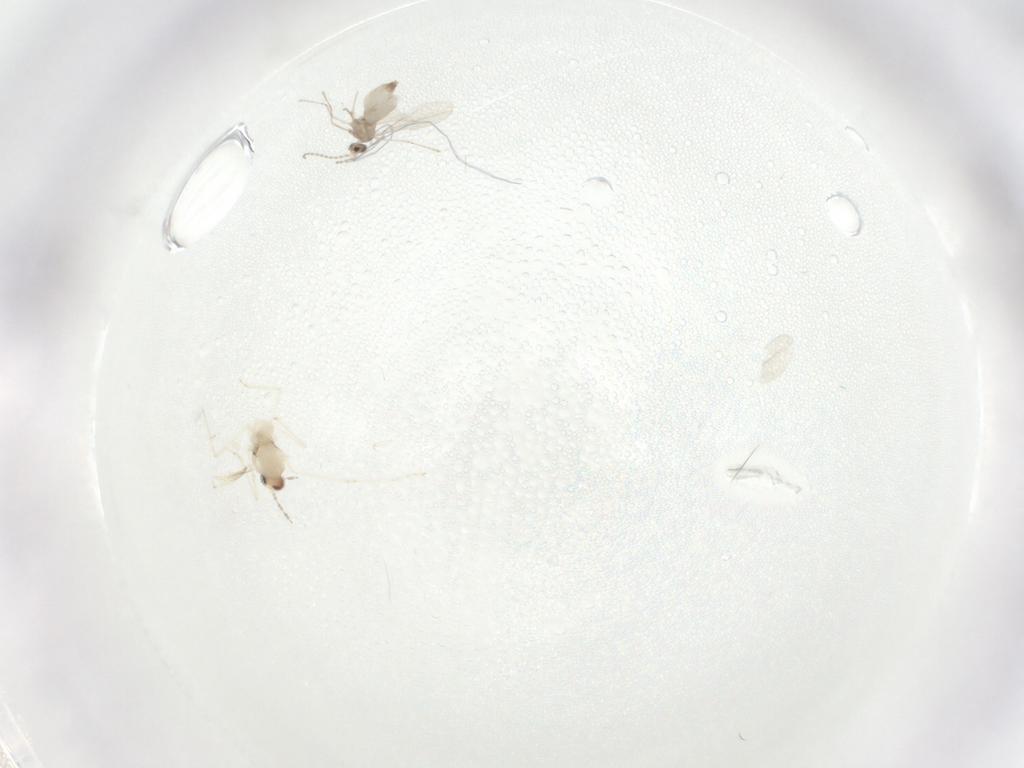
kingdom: Animalia
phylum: Arthropoda
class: Insecta
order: Diptera
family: Cecidomyiidae
